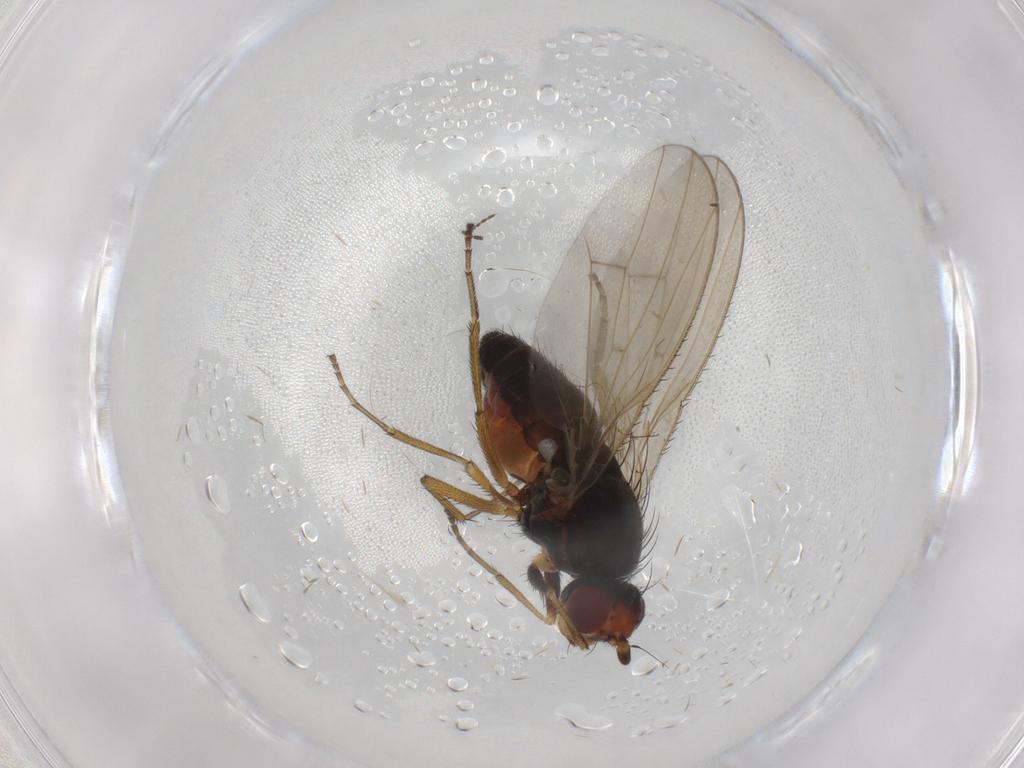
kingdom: Animalia
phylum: Arthropoda
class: Insecta
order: Diptera
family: Heleomyzidae
